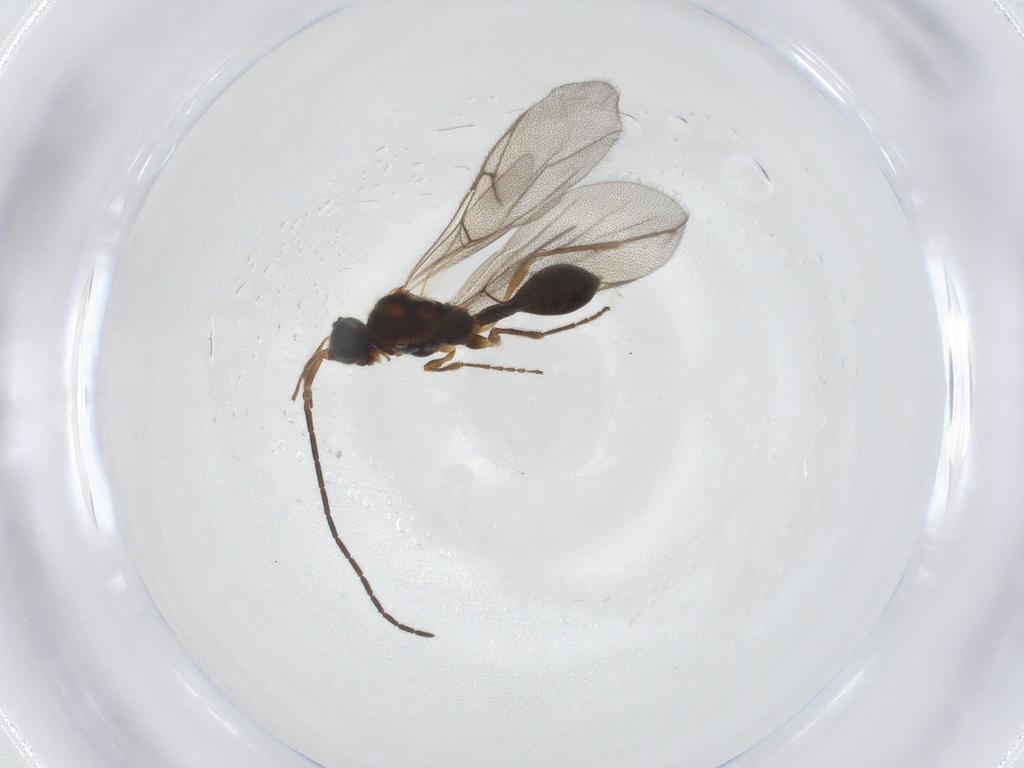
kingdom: Animalia
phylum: Arthropoda
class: Insecta
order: Hymenoptera
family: Diapriidae
